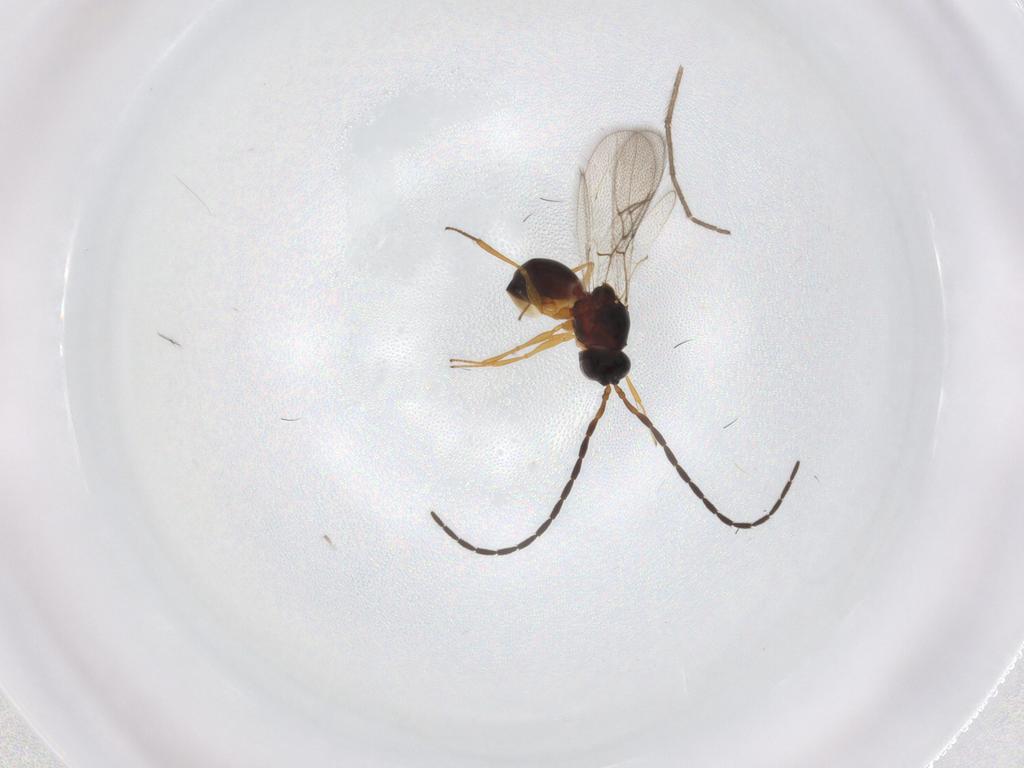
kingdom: Animalia
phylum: Arthropoda
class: Insecta
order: Hymenoptera
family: Figitidae
